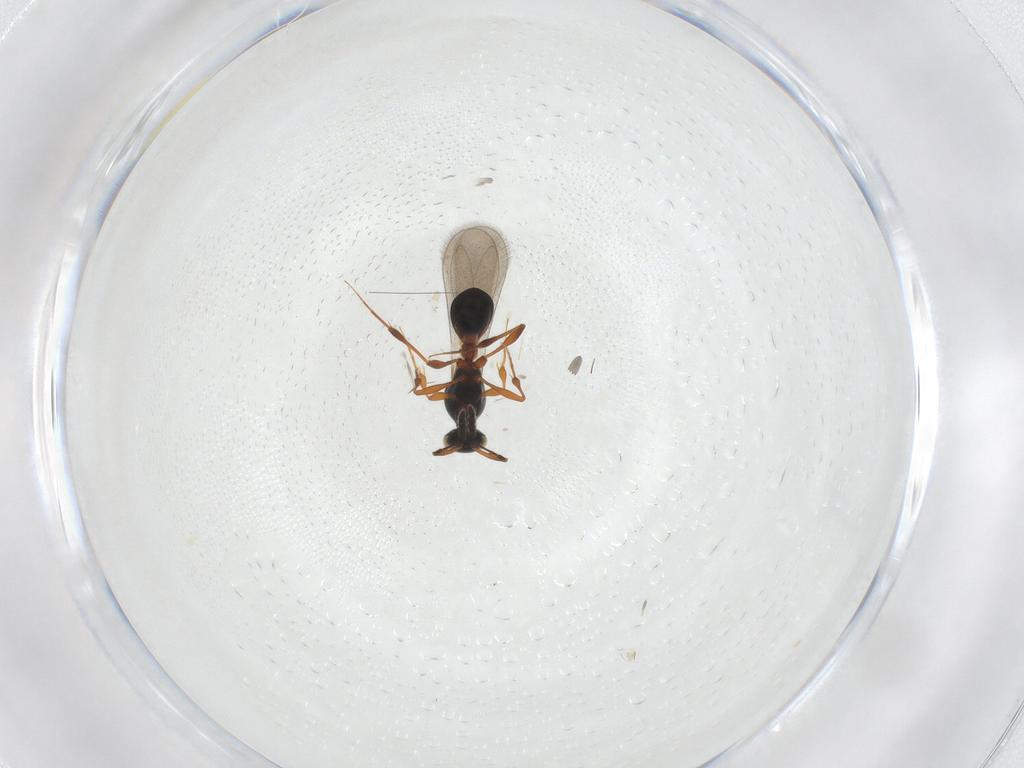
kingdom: Animalia
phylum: Arthropoda
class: Insecta
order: Hymenoptera
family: Platygastridae
